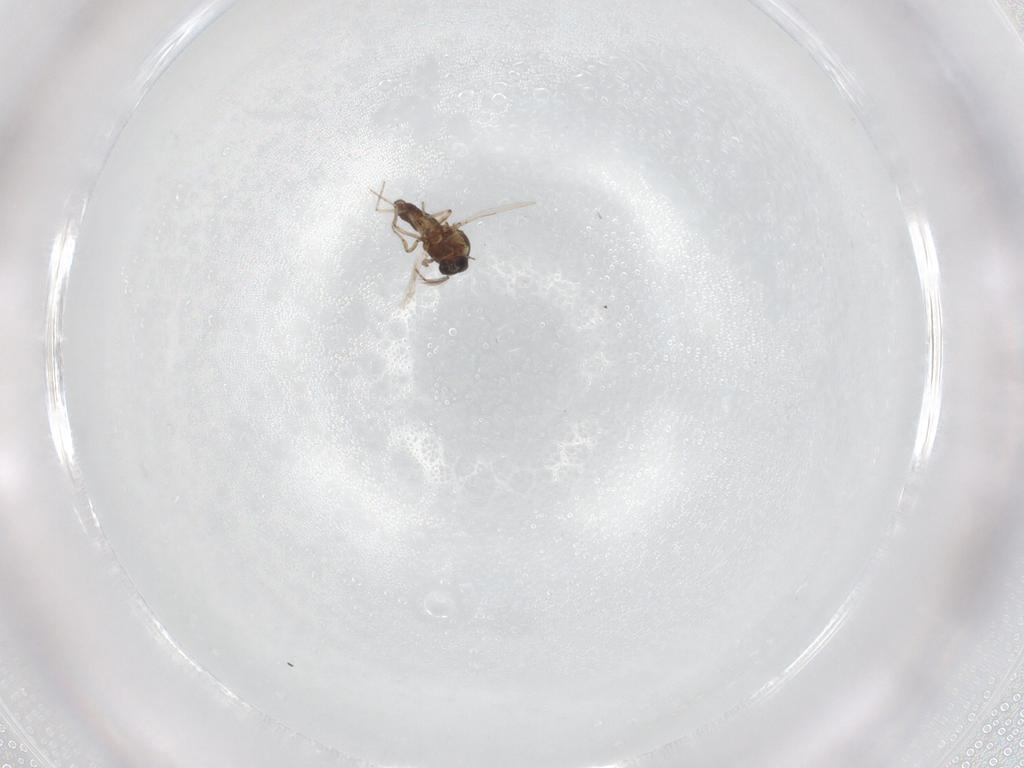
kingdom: Animalia
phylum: Arthropoda
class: Insecta
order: Diptera
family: Ceratopogonidae
